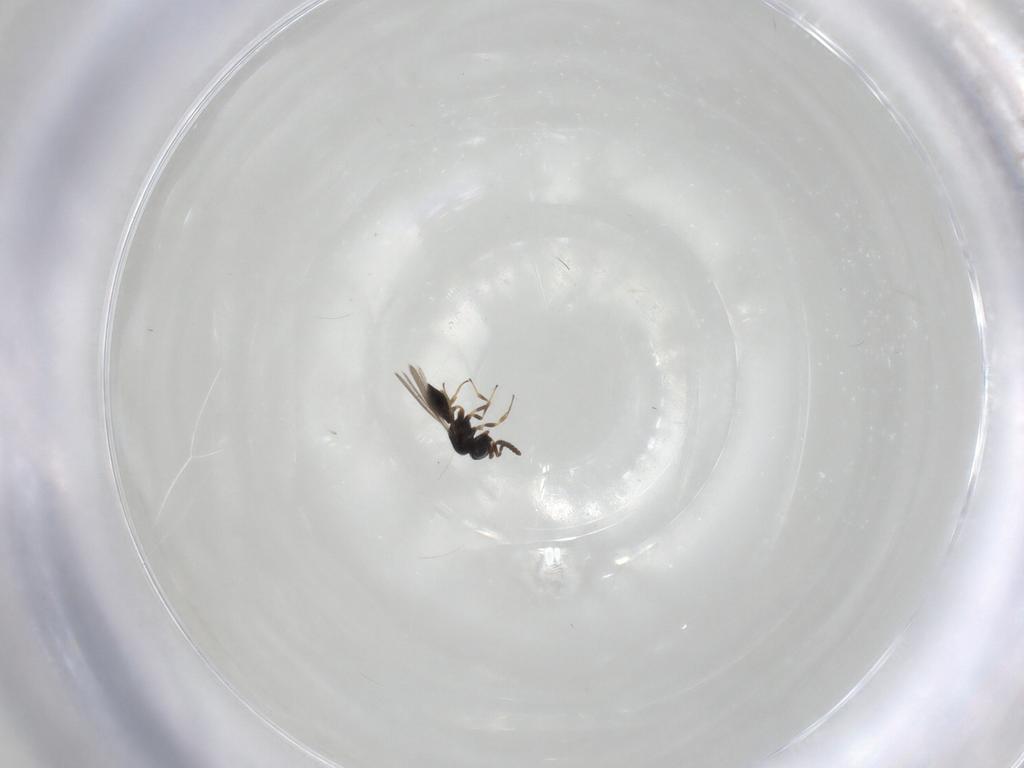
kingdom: Animalia
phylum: Arthropoda
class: Insecta
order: Hymenoptera
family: Scelionidae
